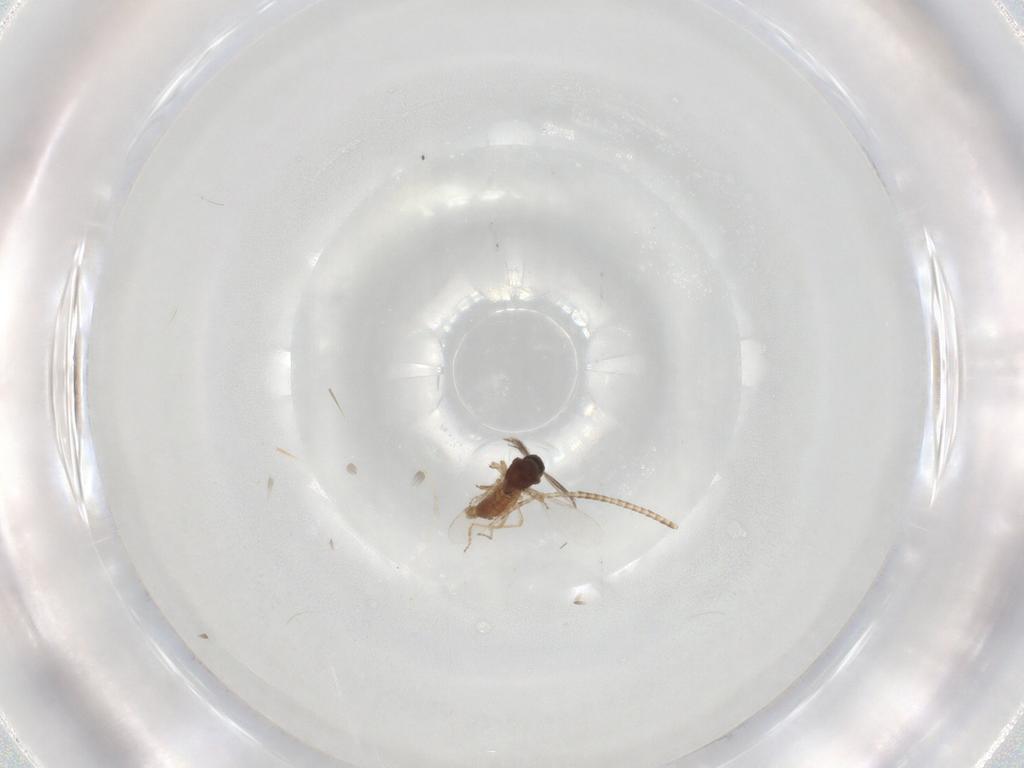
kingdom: Animalia
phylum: Arthropoda
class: Insecta
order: Diptera
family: Ceratopogonidae
